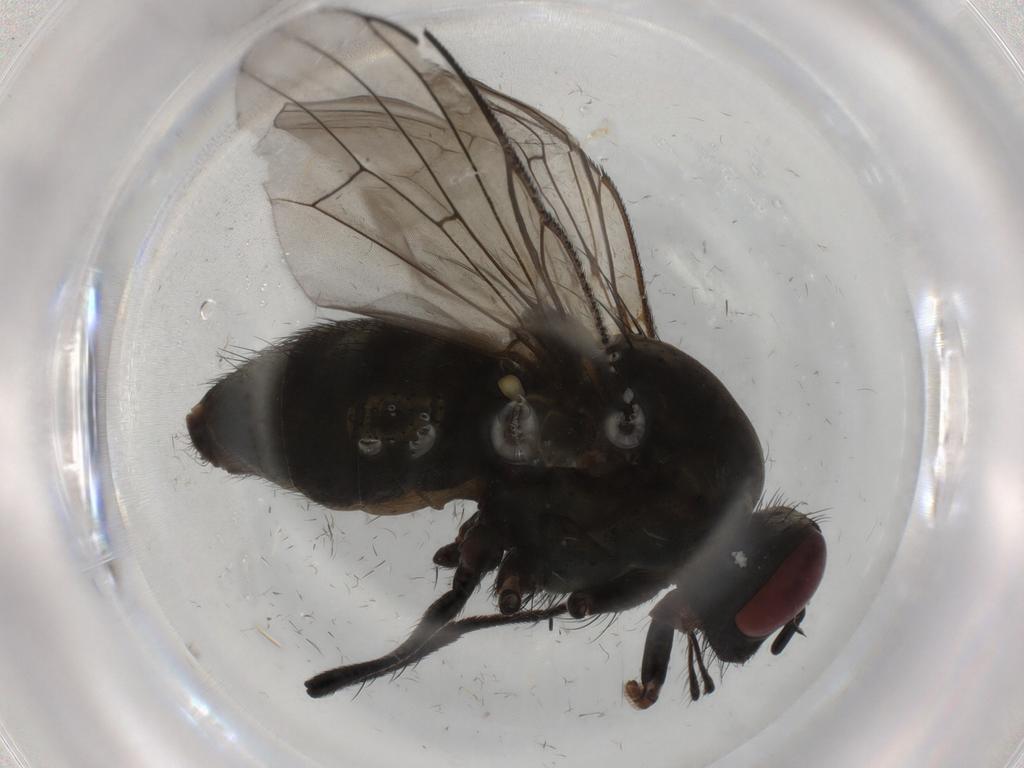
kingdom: Animalia
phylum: Arthropoda
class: Insecta
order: Diptera
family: Muscidae
